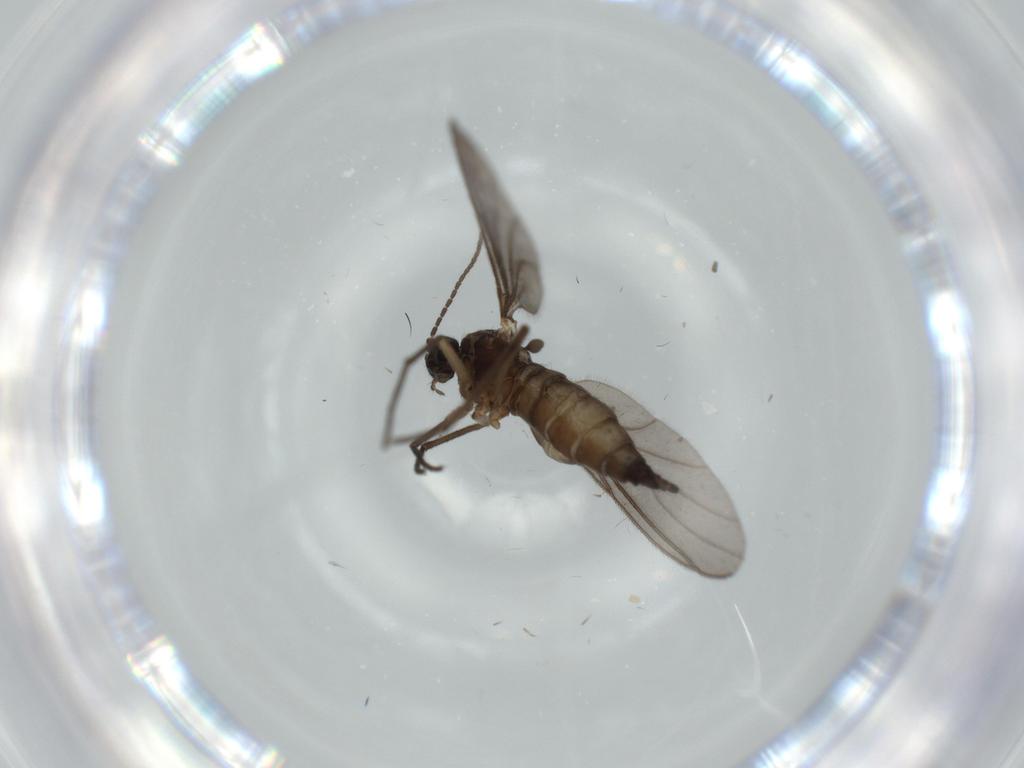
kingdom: Animalia
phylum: Arthropoda
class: Insecta
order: Diptera
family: Sciaridae
